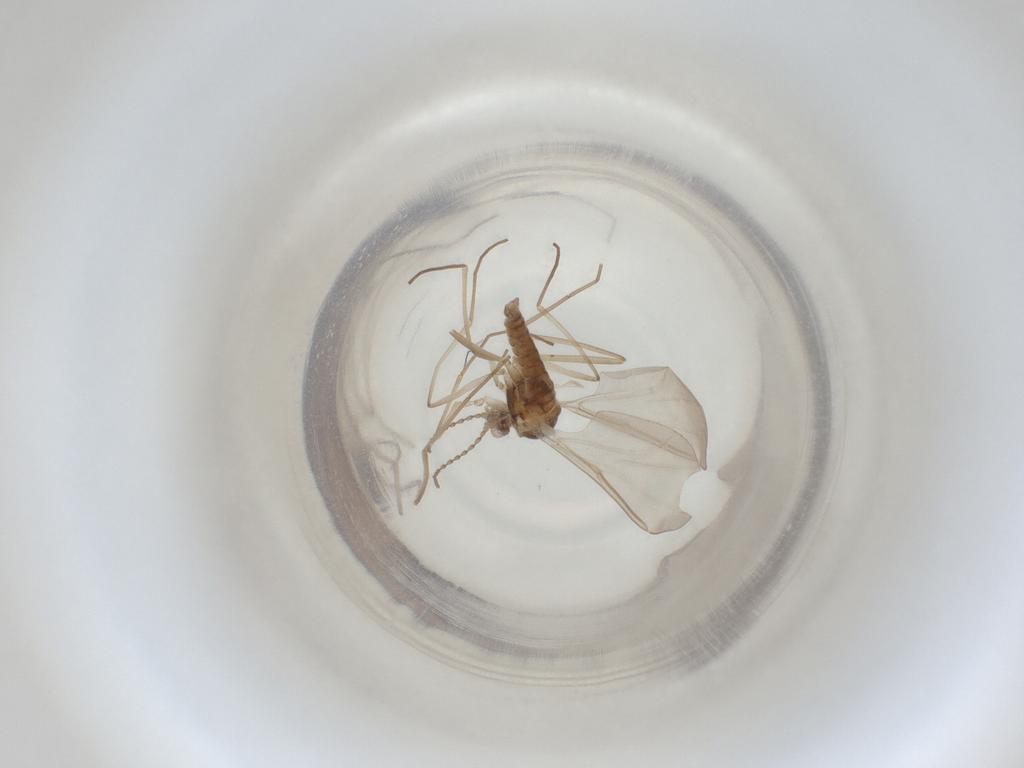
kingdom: Animalia
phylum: Arthropoda
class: Insecta
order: Diptera
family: Cecidomyiidae
